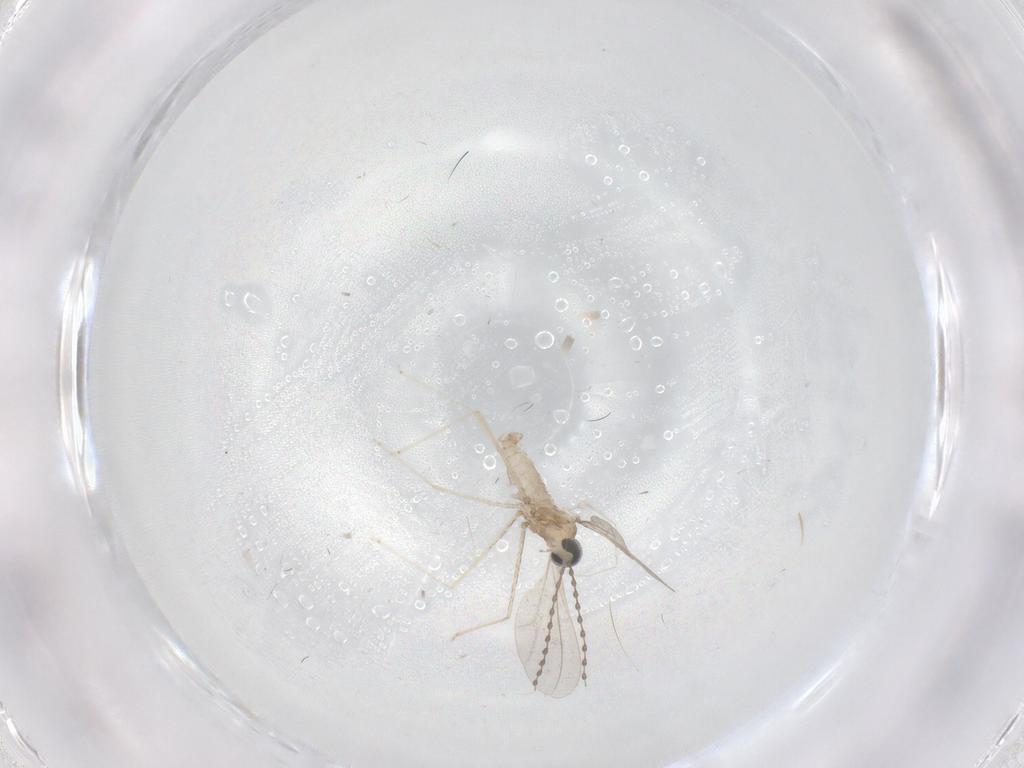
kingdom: Animalia
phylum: Arthropoda
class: Insecta
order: Diptera
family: Cecidomyiidae
